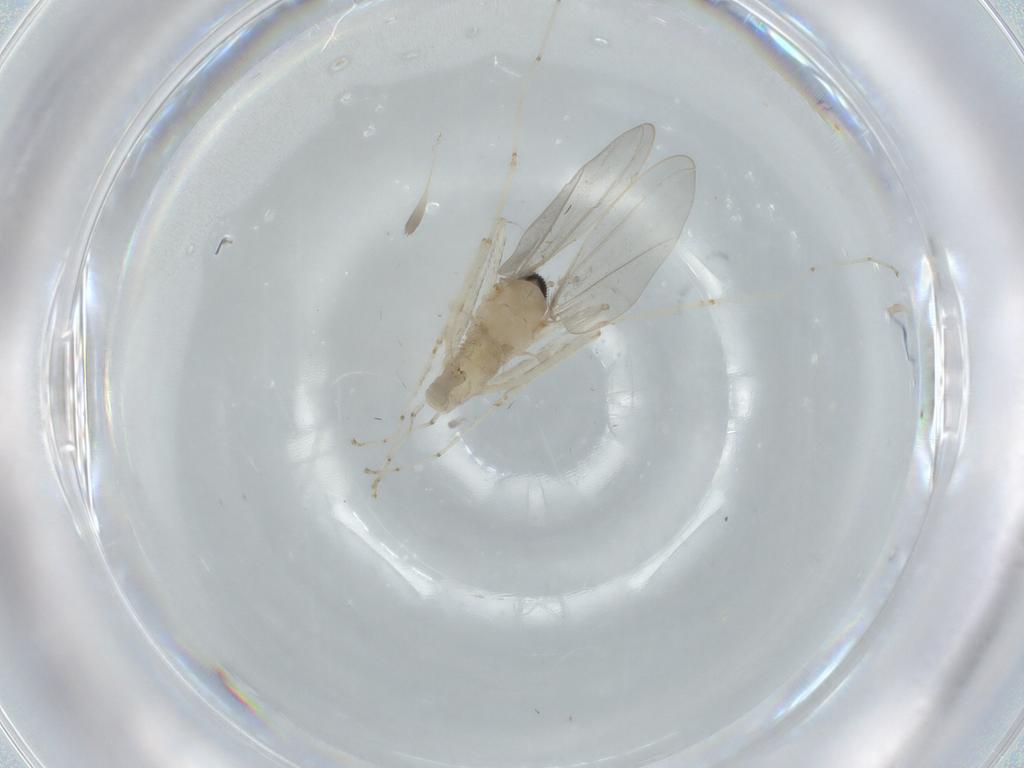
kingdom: Animalia
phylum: Arthropoda
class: Insecta
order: Diptera
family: Cecidomyiidae
